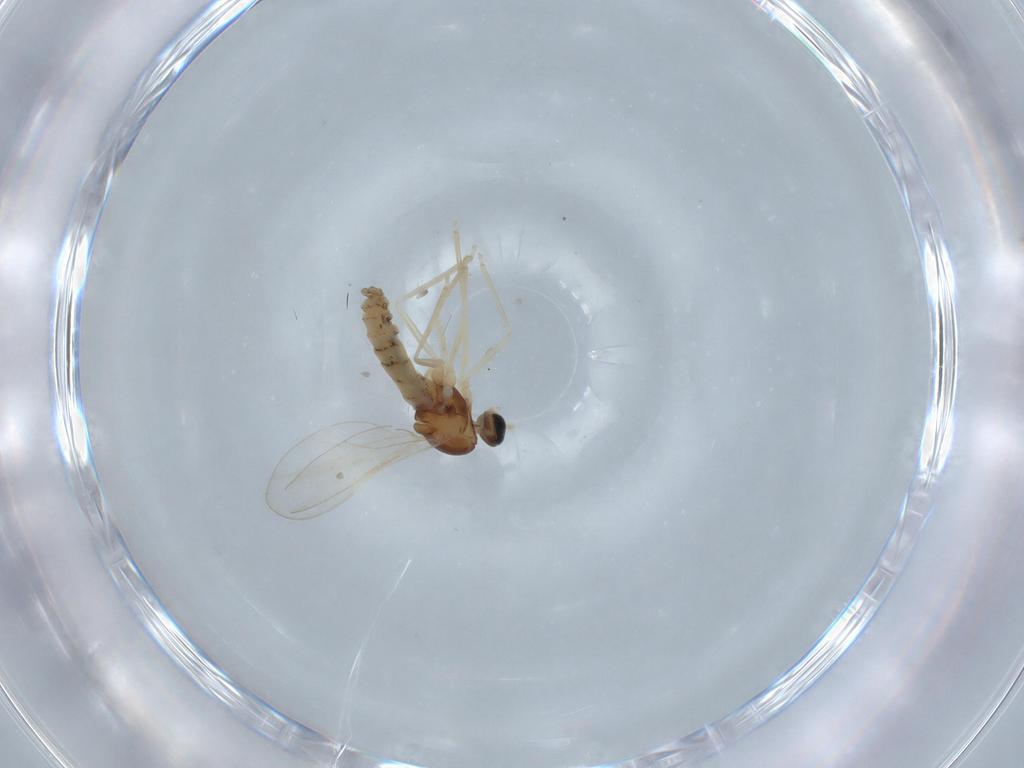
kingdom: Animalia
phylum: Arthropoda
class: Insecta
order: Diptera
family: Cecidomyiidae
